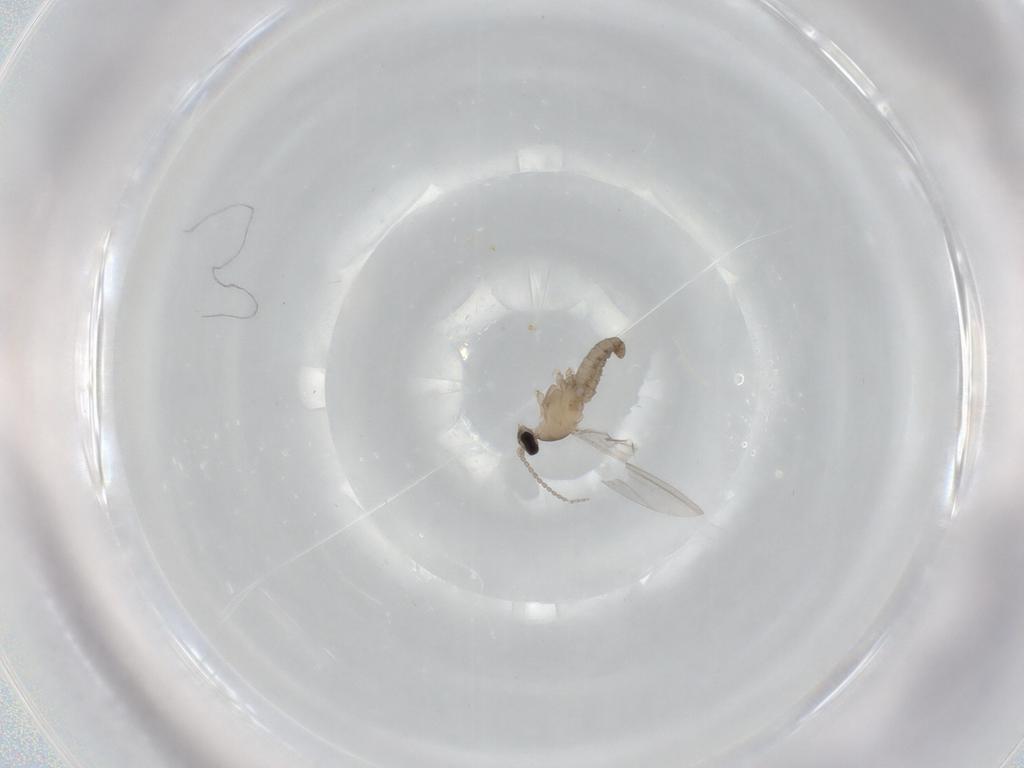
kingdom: Animalia
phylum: Arthropoda
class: Insecta
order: Diptera
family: Cecidomyiidae
